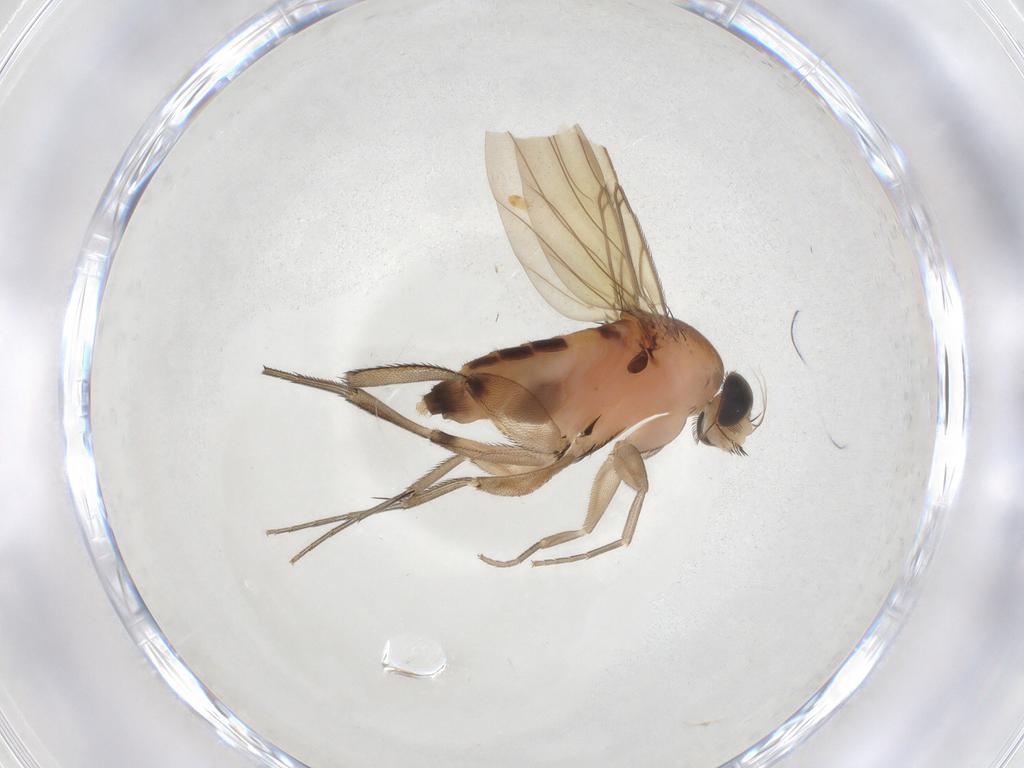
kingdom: Animalia
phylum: Arthropoda
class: Insecta
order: Diptera
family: Phoridae
